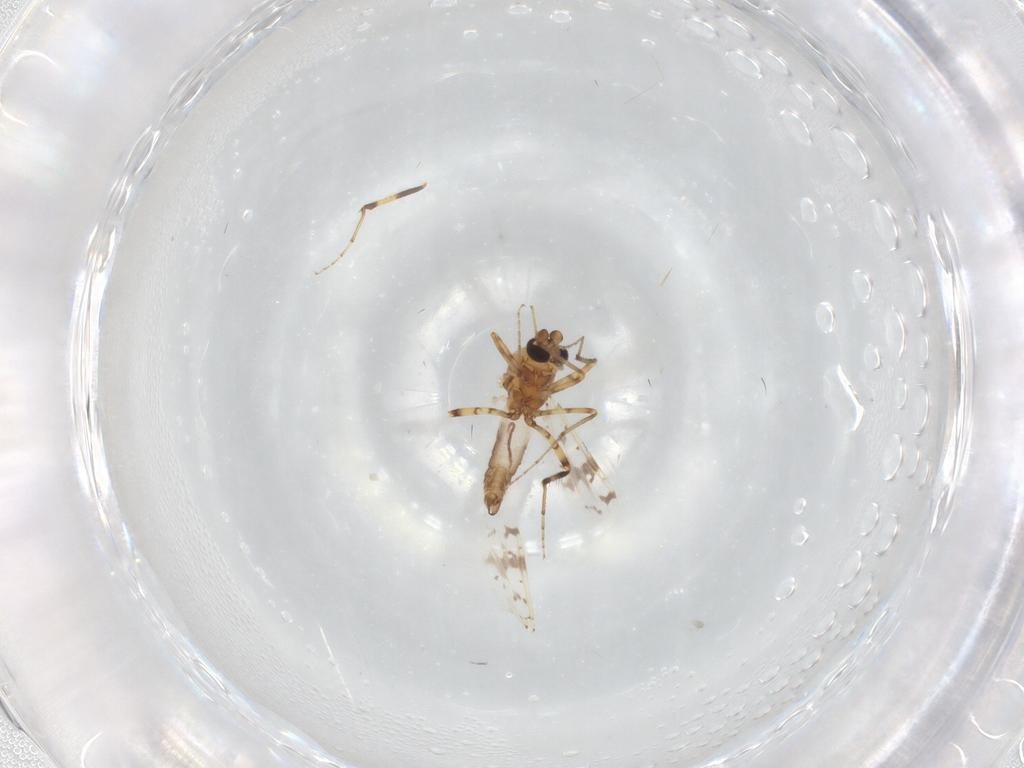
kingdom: Animalia
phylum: Arthropoda
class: Insecta
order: Diptera
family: Ceratopogonidae
